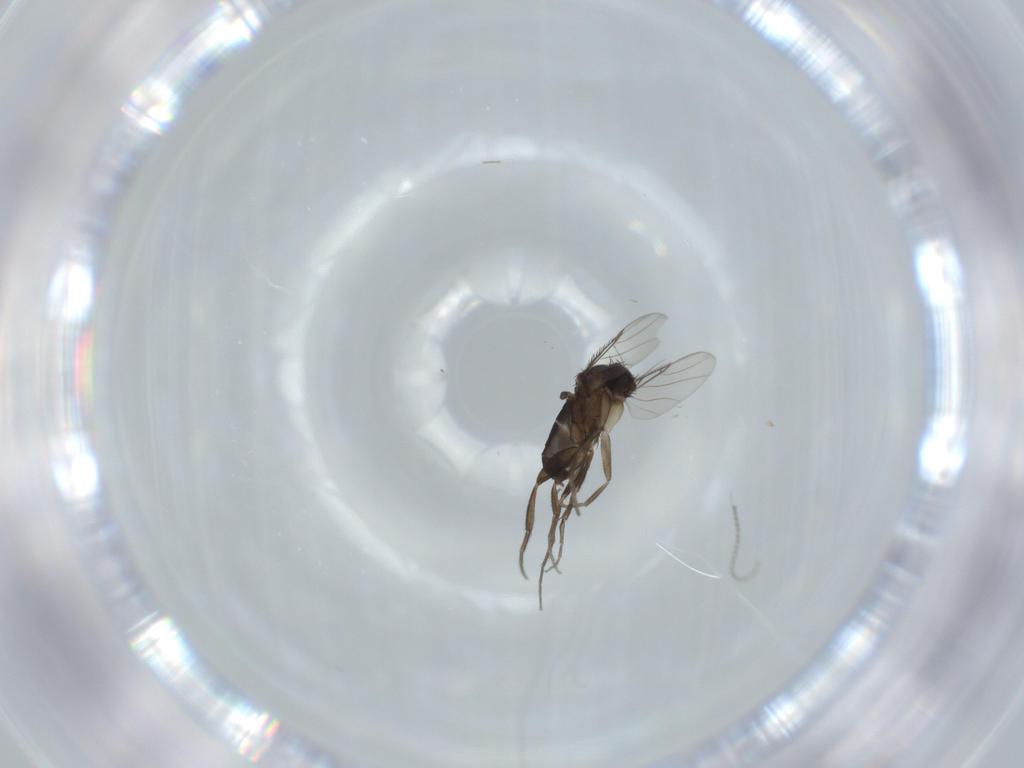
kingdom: Animalia
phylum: Arthropoda
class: Insecta
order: Diptera
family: Chironomidae
